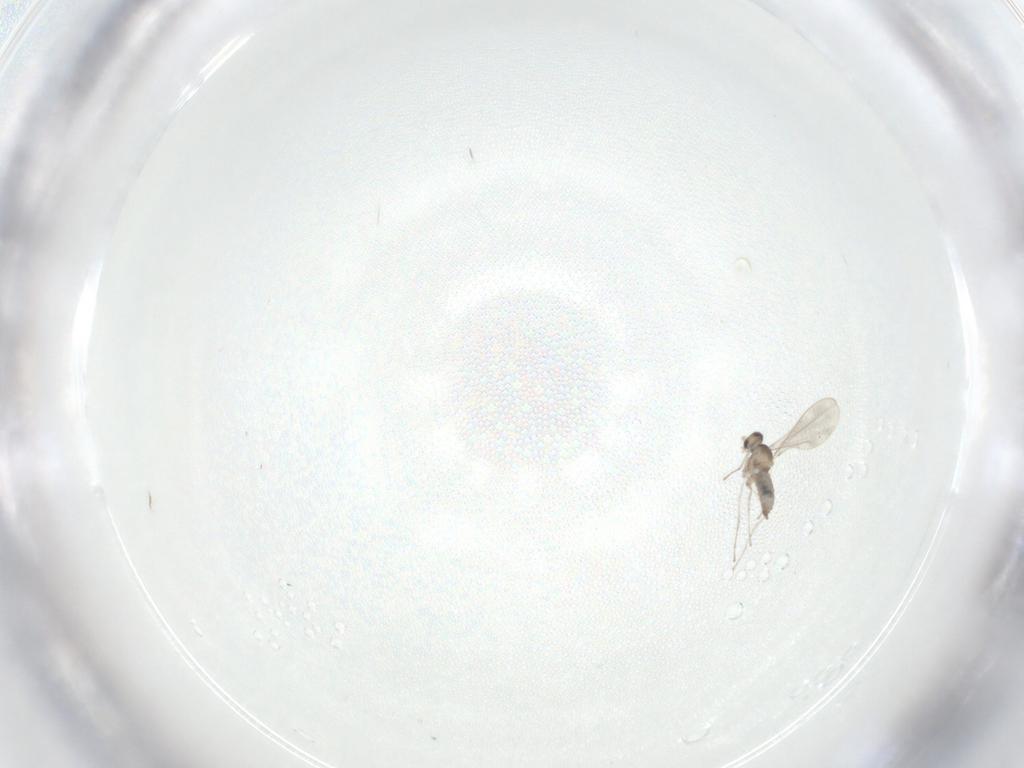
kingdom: Animalia
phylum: Arthropoda
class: Insecta
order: Diptera
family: Cecidomyiidae
